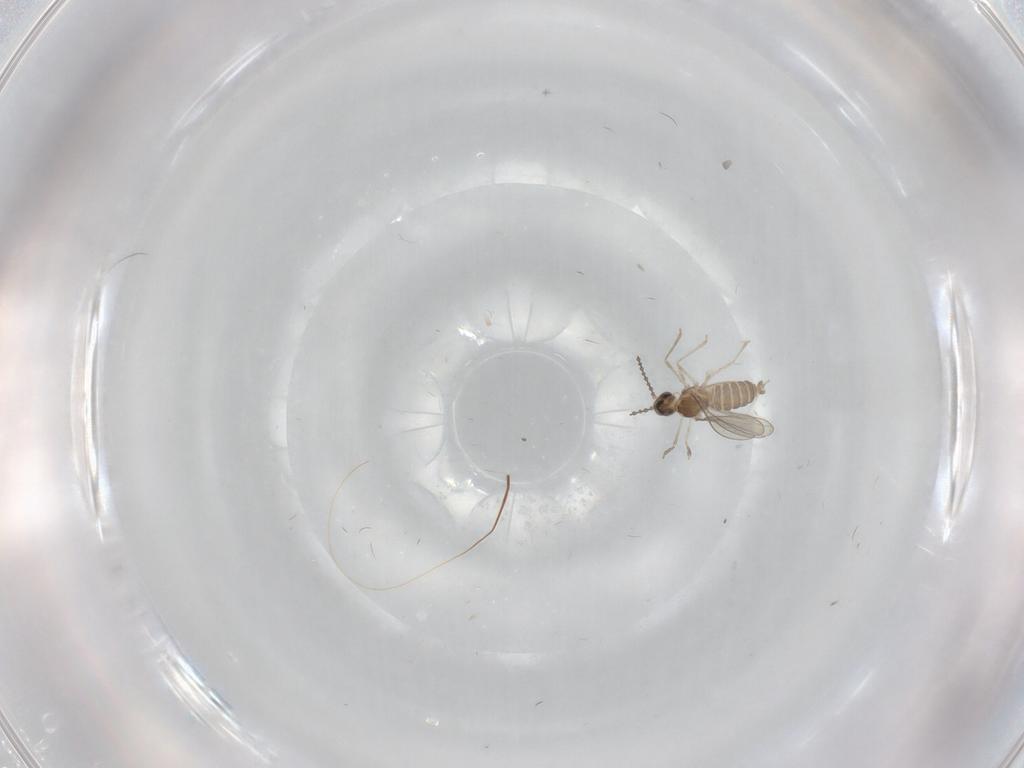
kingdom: Animalia
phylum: Arthropoda
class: Insecta
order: Diptera
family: Cecidomyiidae
